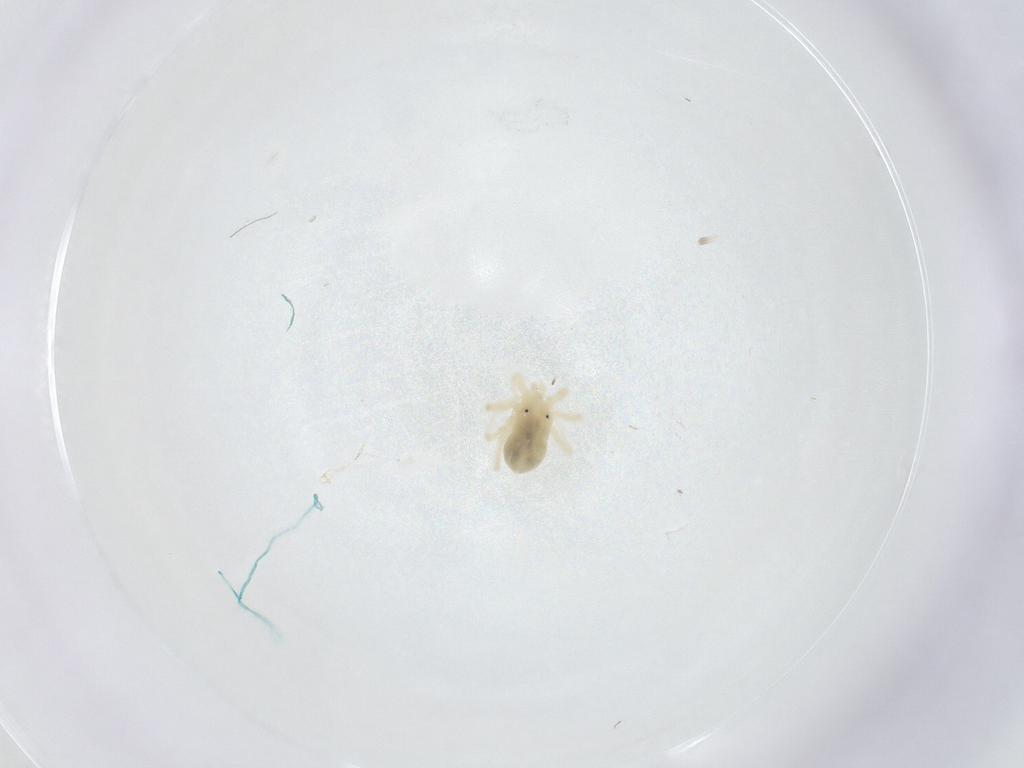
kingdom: Animalia
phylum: Arthropoda
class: Arachnida
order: Trombidiformes
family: Anystidae
